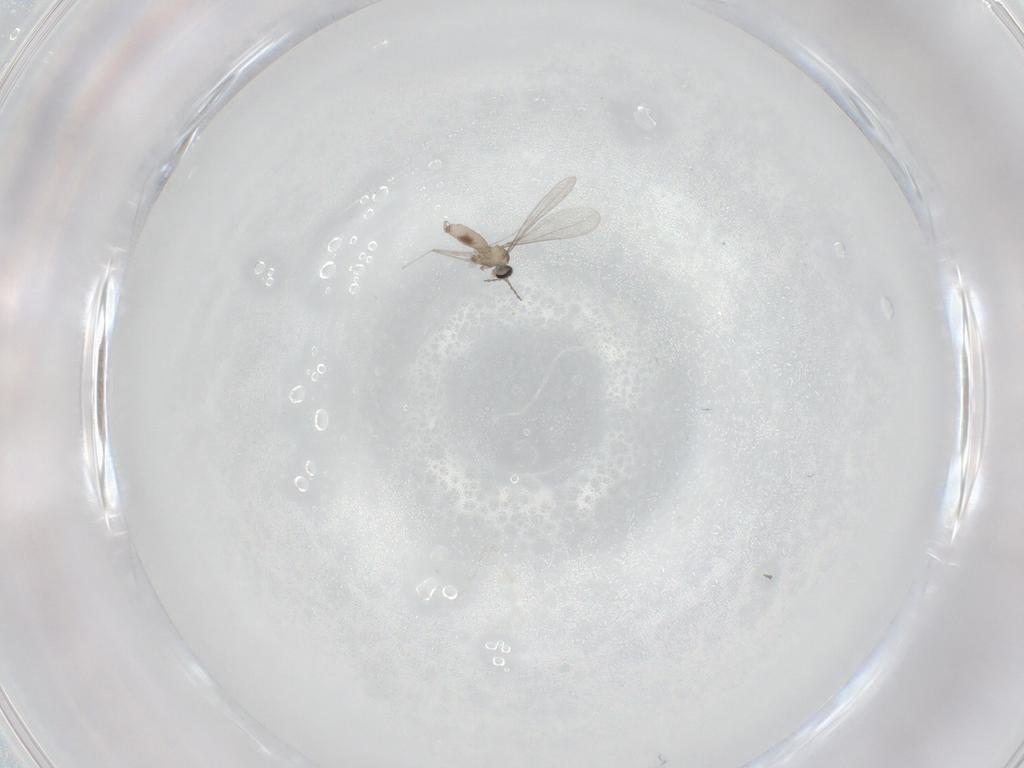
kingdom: Animalia
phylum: Arthropoda
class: Insecta
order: Diptera
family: Cecidomyiidae
